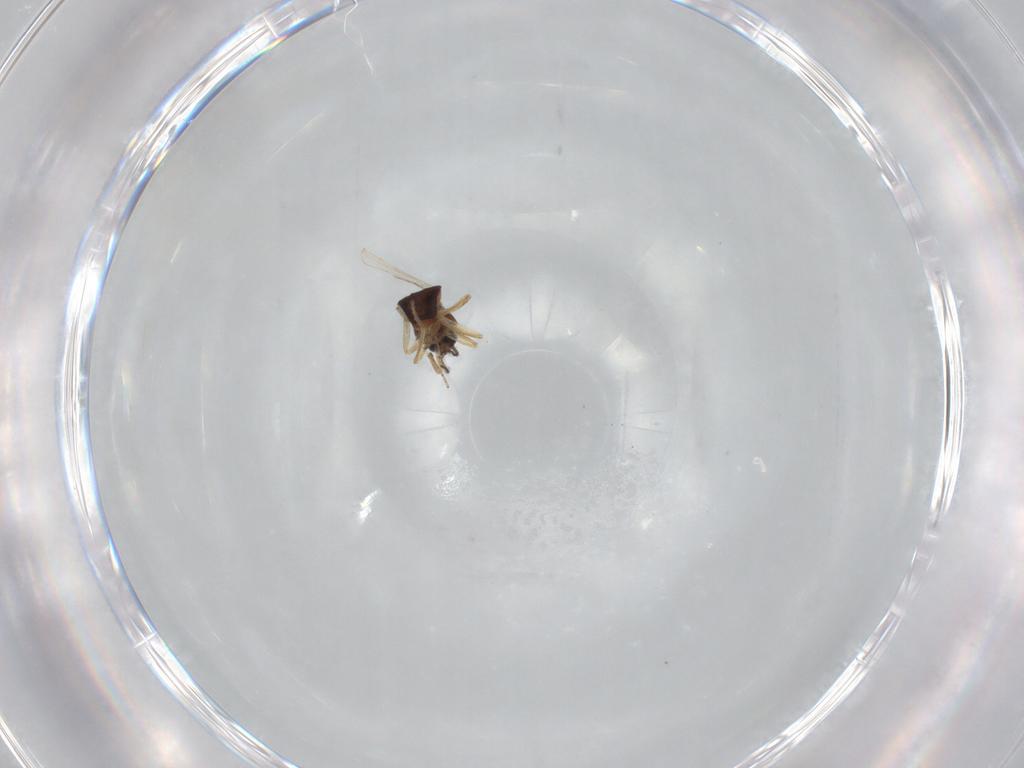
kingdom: Animalia
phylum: Arthropoda
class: Insecta
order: Diptera
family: Ceratopogonidae
